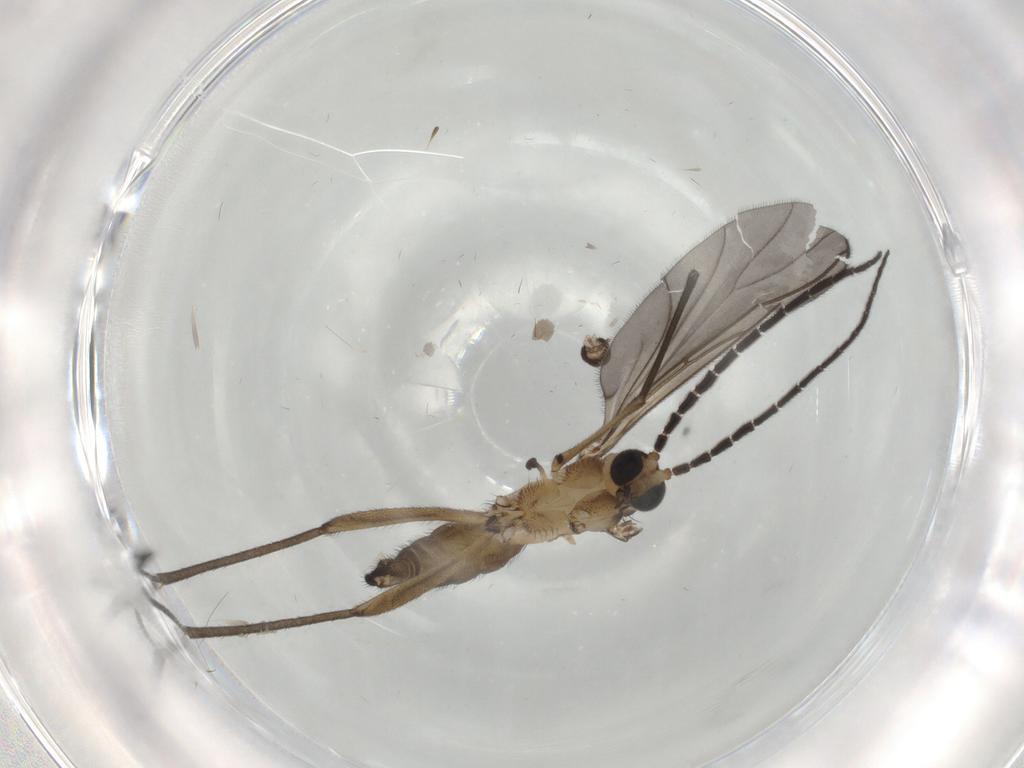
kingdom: Animalia
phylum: Arthropoda
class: Insecta
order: Diptera
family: Sciaridae
